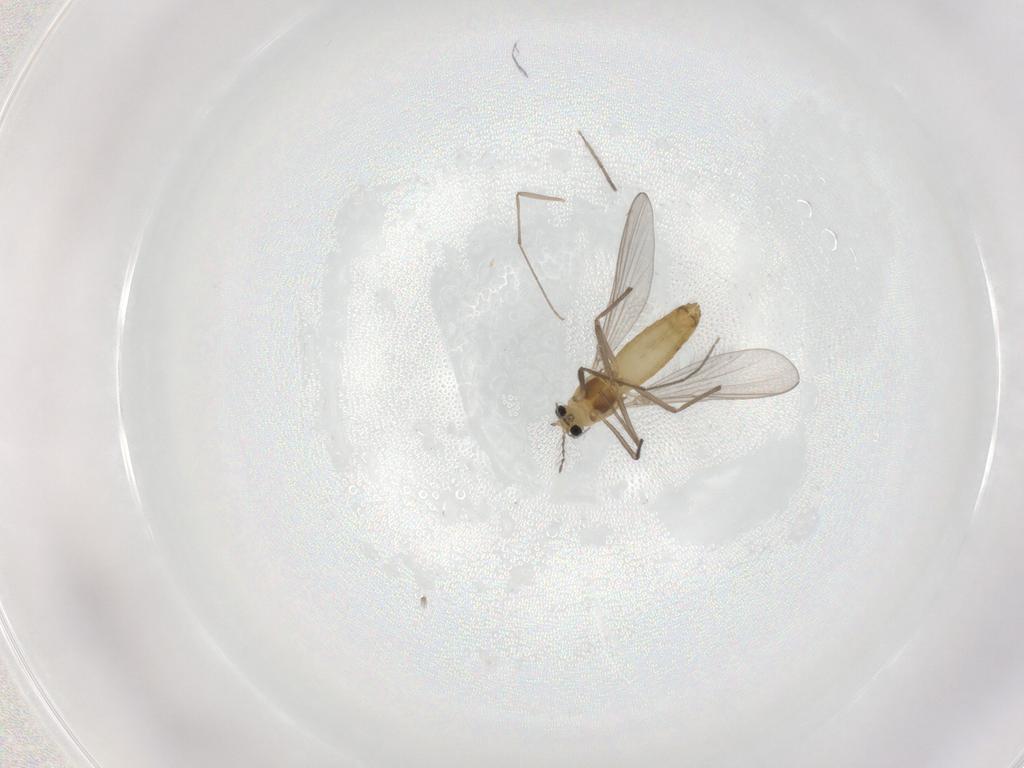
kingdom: Animalia
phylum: Arthropoda
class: Insecta
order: Diptera
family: Chironomidae
